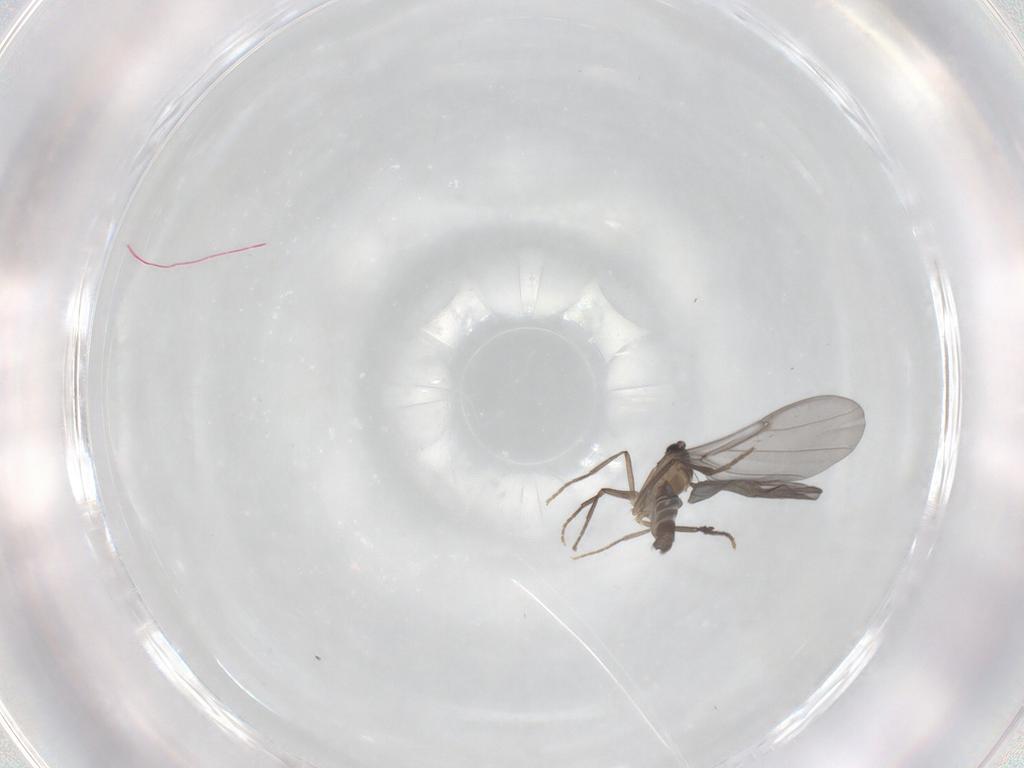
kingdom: Animalia
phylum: Arthropoda
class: Insecta
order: Diptera
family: Phoridae
